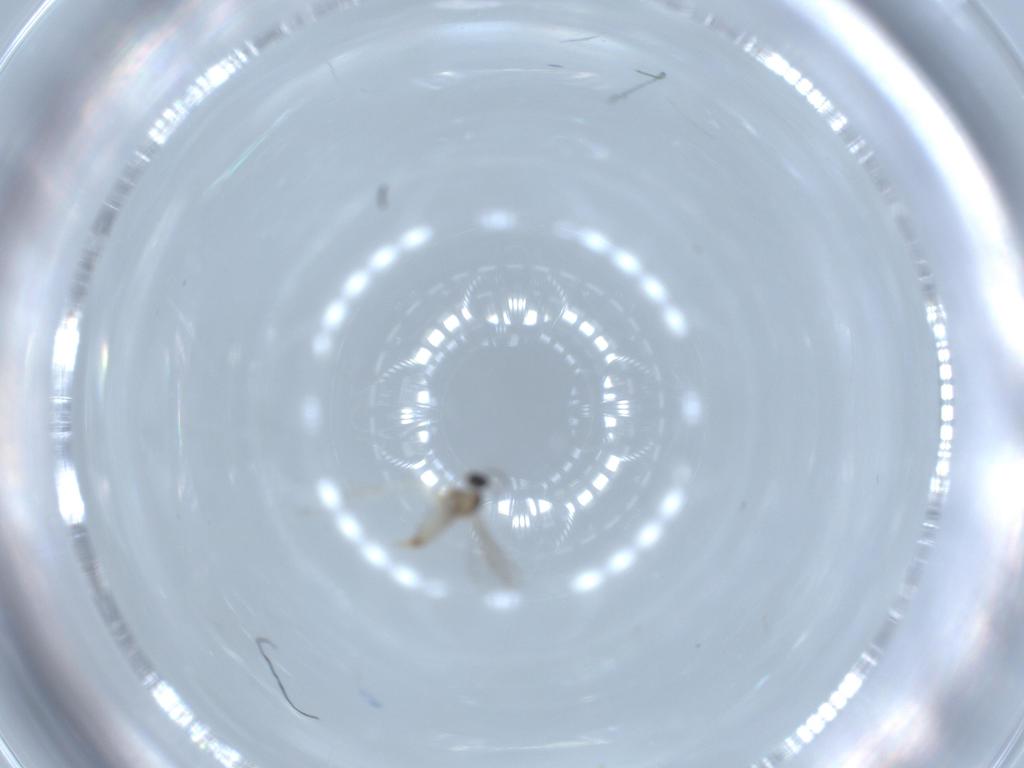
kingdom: Animalia
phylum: Arthropoda
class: Insecta
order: Diptera
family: Cecidomyiidae
